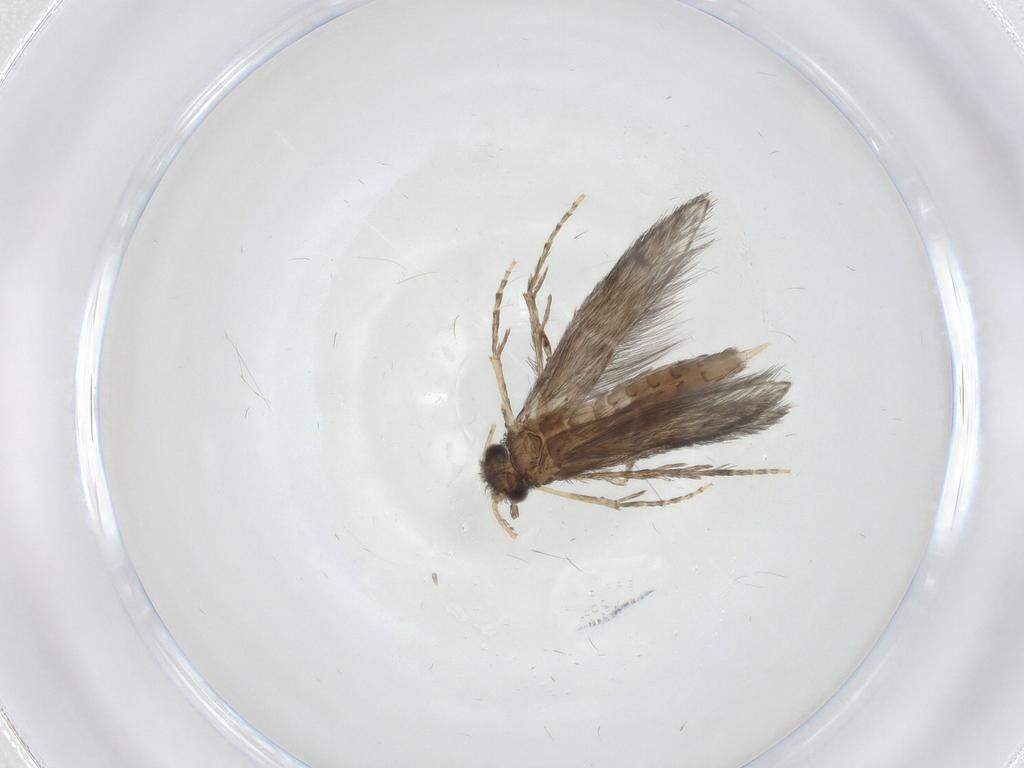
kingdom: Animalia
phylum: Arthropoda
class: Insecta
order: Trichoptera
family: Hydroptilidae
